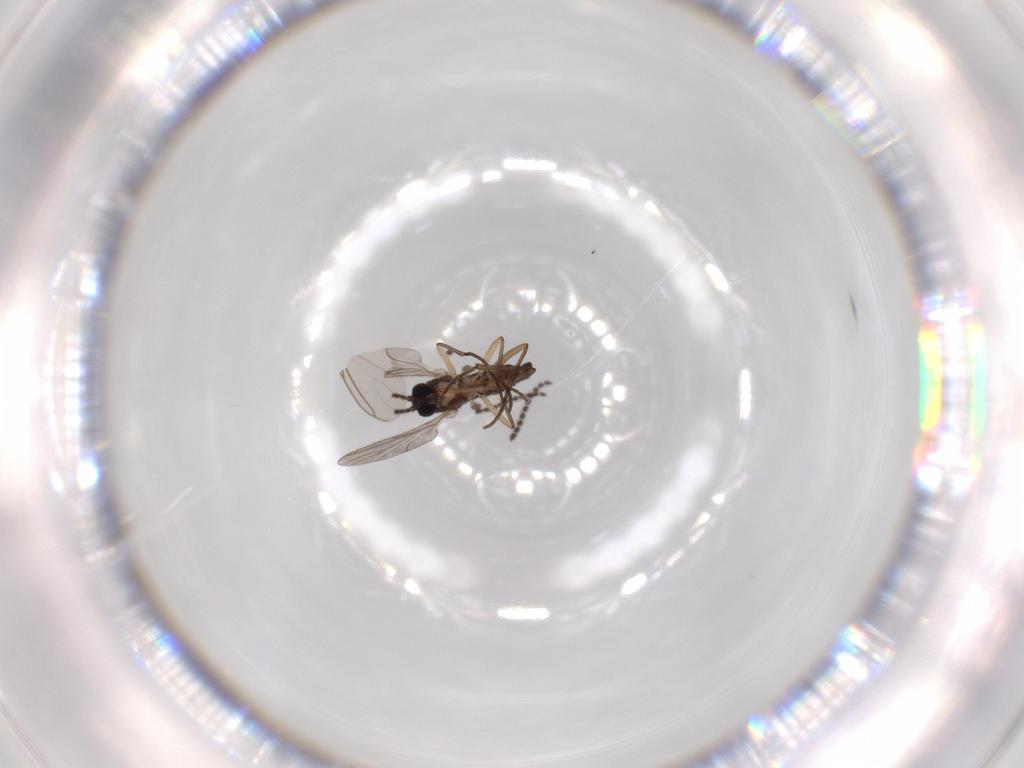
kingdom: Animalia
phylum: Arthropoda
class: Insecta
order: Diptera
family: Sciaridae
